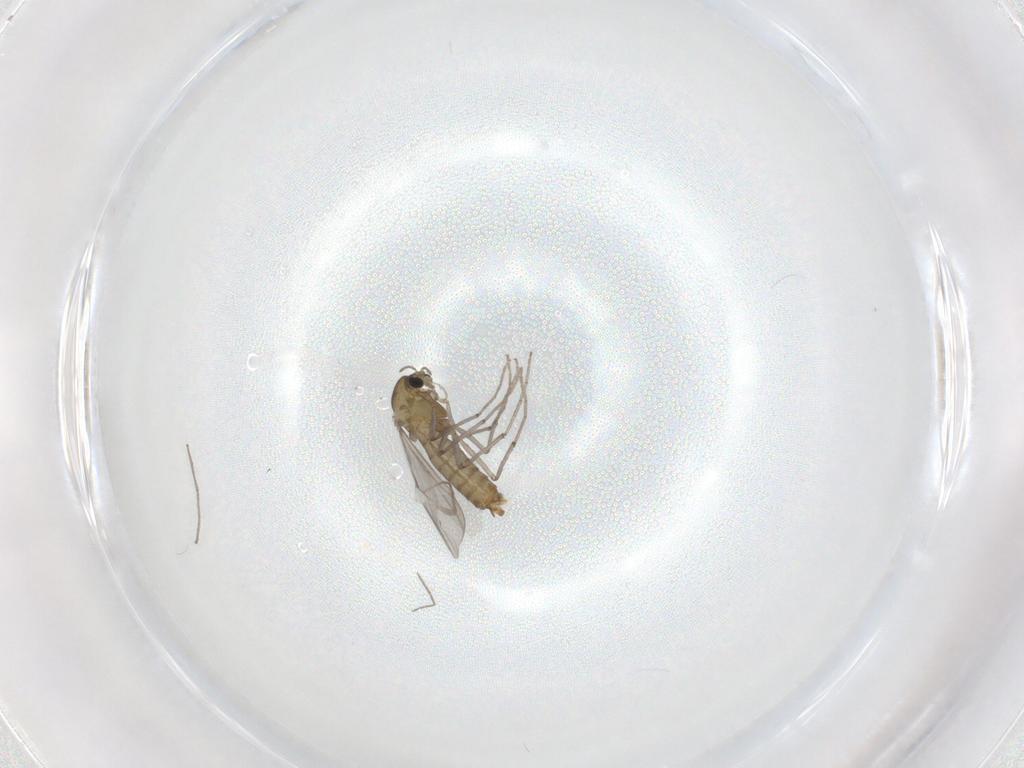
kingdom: Animalia
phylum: Arthropoda
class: Insecta
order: Diptera
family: Chironomidae
